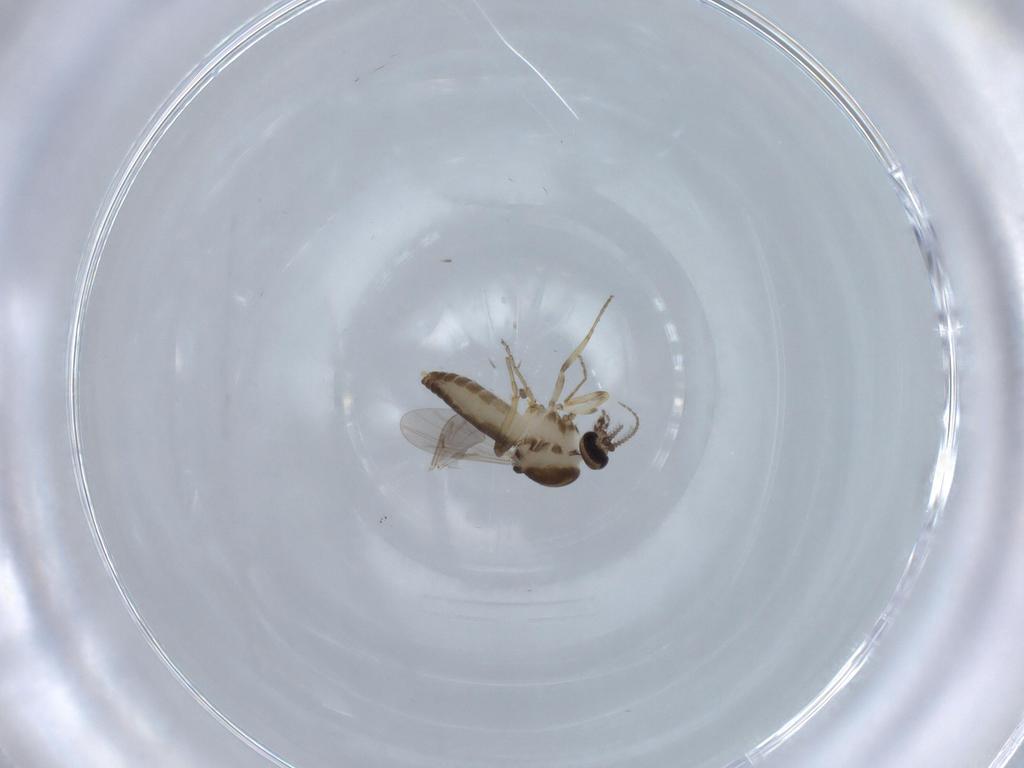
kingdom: Animalia
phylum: Arthropoda
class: Insecta
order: Diptera
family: Ceratopogonidae
